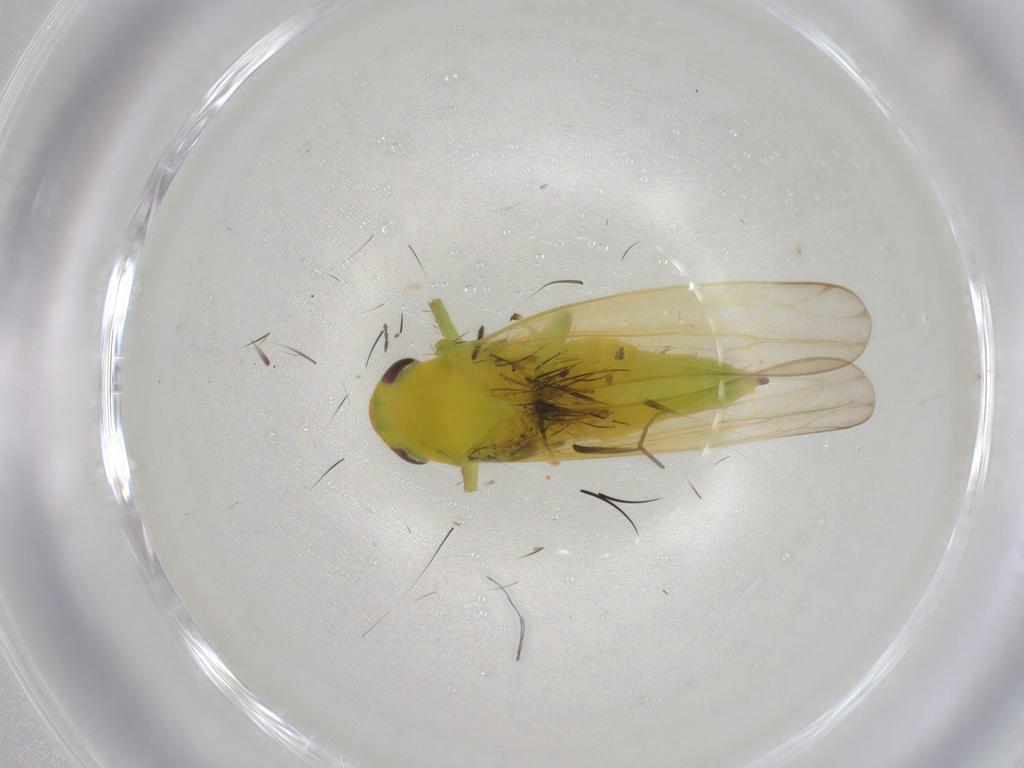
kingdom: Animalia
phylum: Arthropoda
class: Insecta
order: Hemiptera
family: Cicadellidae
